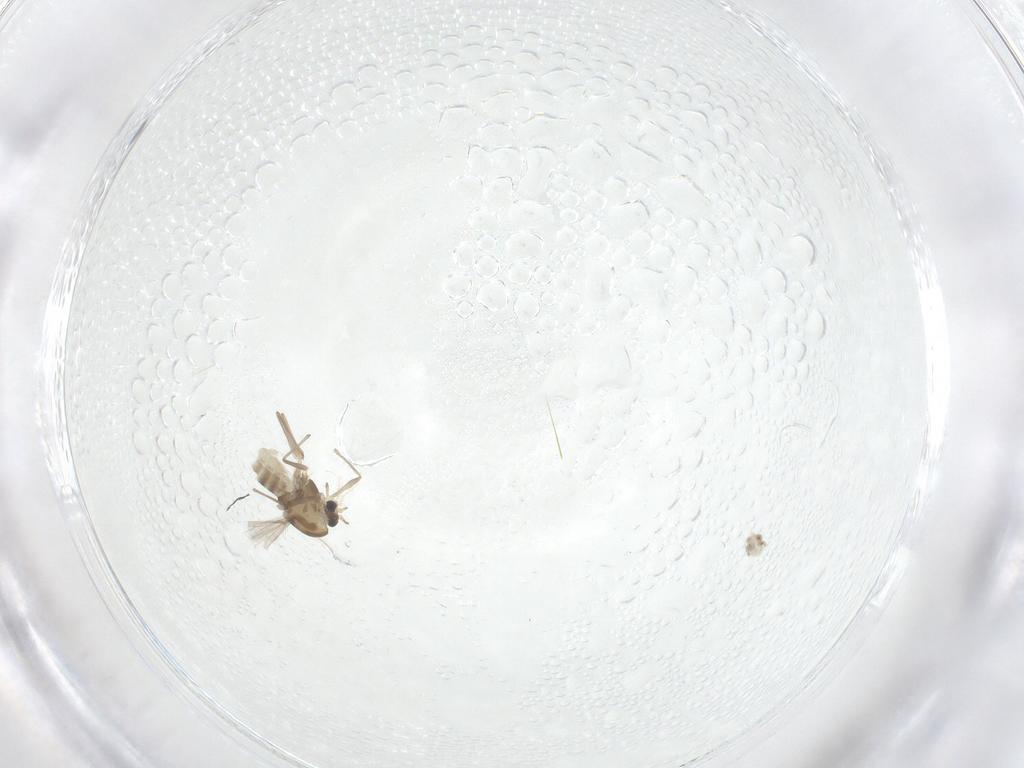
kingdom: Animalia
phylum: Arthropoda
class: Insecta
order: Diptera
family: Chironomidae
